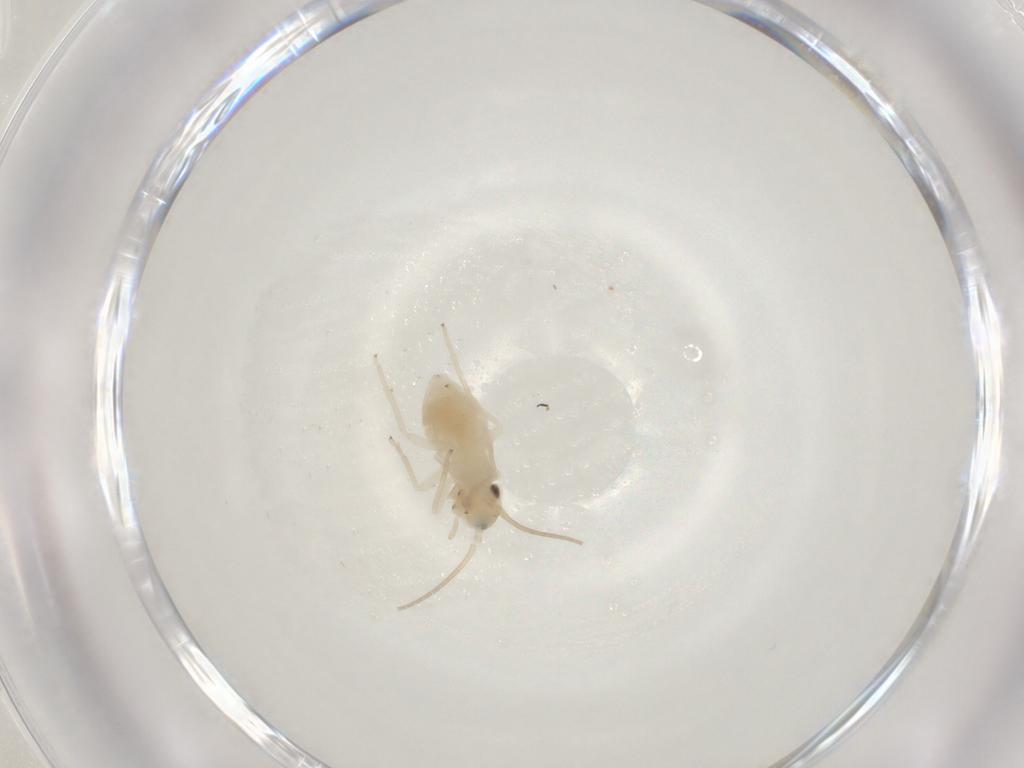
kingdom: Animalia
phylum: Arthropoda
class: Insecta
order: Psocodea
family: Caeciliusidae
